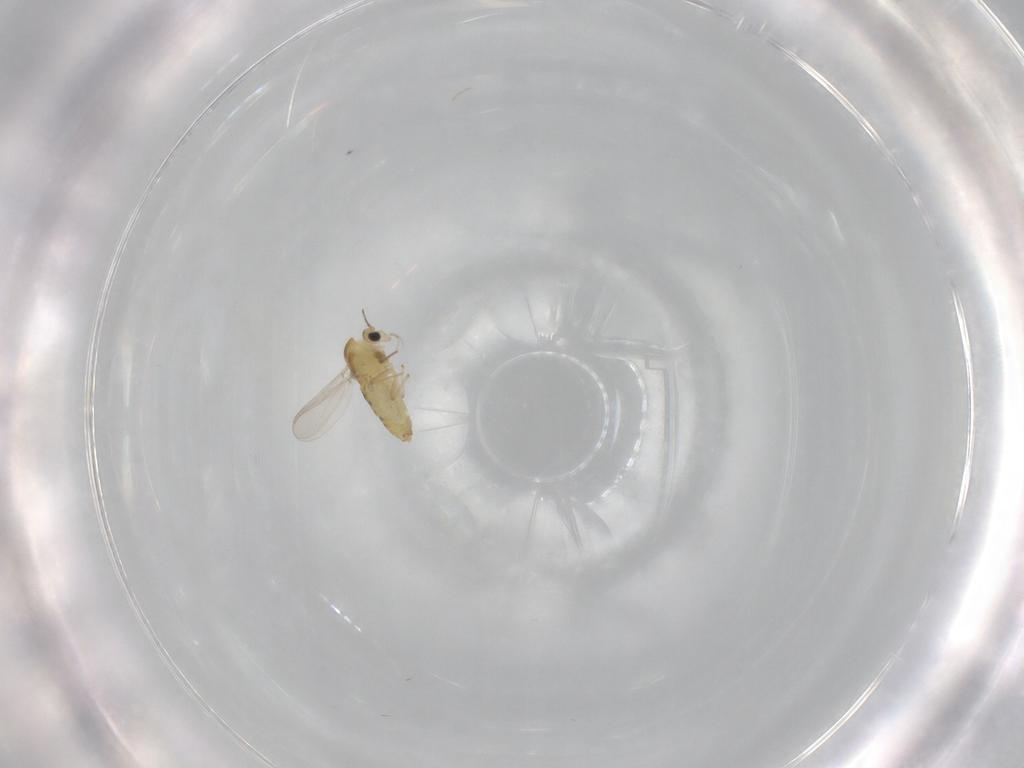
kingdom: Animalia
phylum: Arthropoda
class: Insecta
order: Diptera
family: Chironomidae
